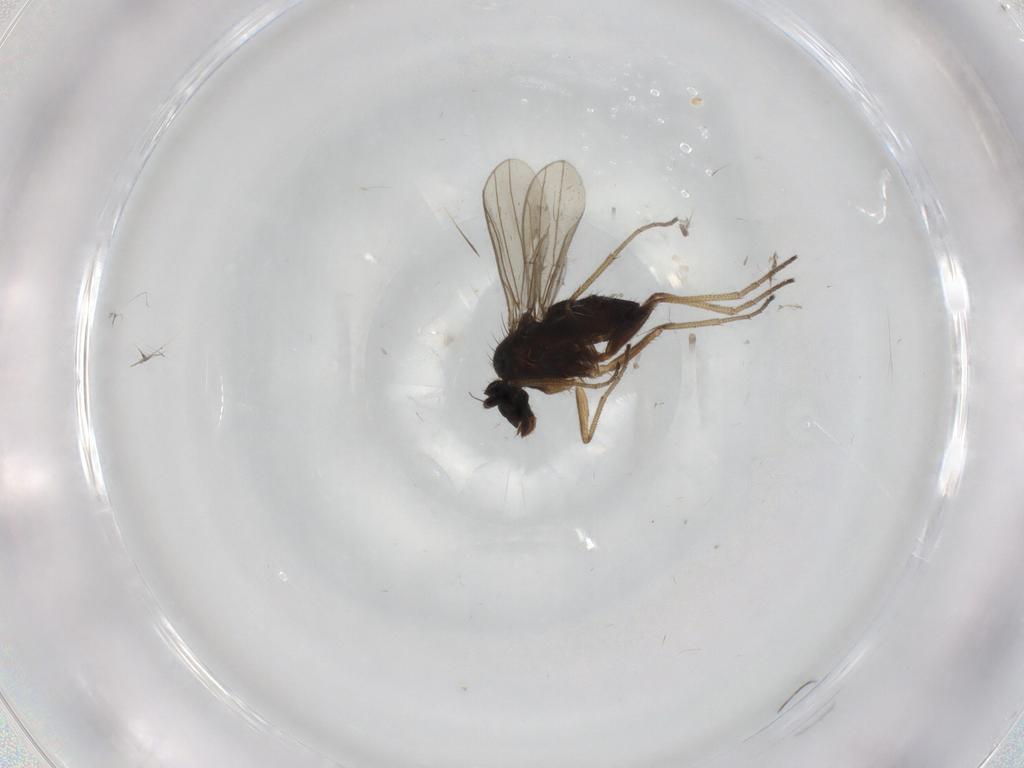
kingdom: Animalia
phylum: Arthropoda
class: Insecta
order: Diptera
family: Dolichopodidae
